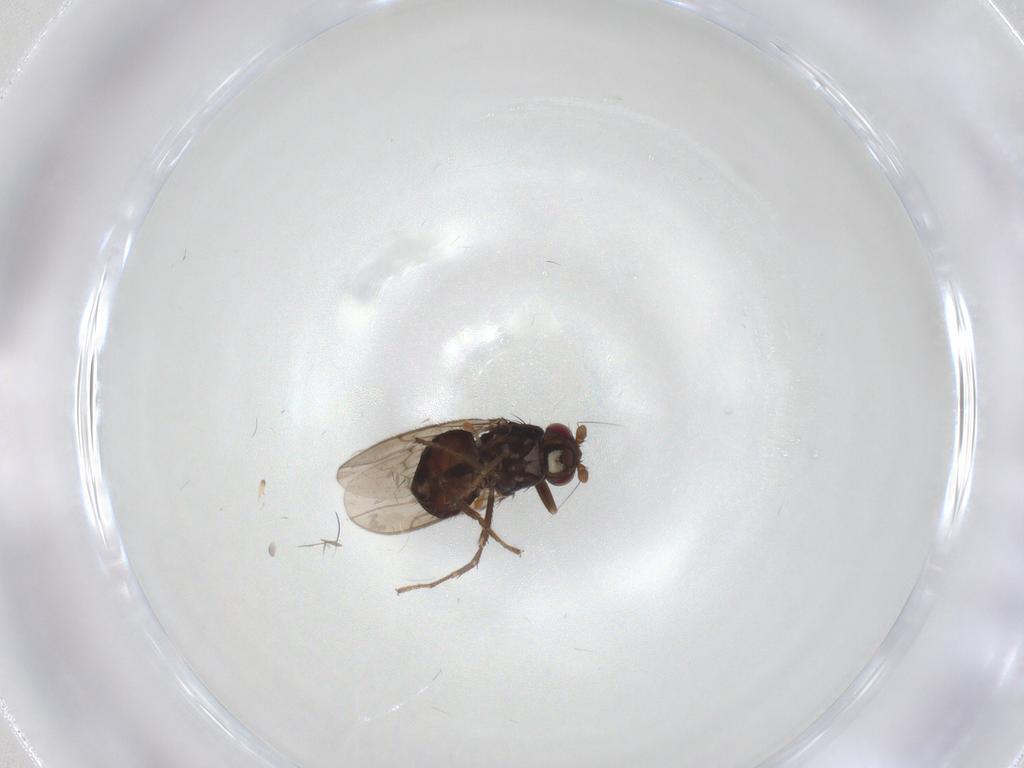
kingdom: Animalia
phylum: Arthropoda
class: Insecta
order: Diptera
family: Sphaeroceridae
